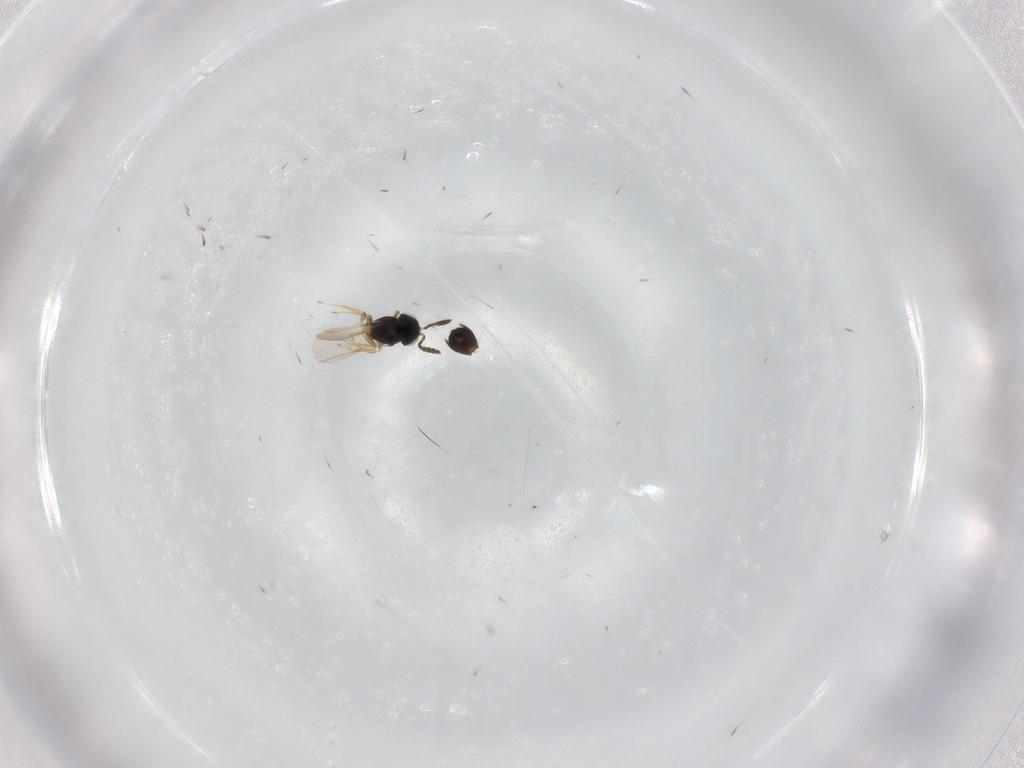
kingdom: Animalia
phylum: Arthropoda
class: Insecta
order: Hymenoptera
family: Scelionidae
